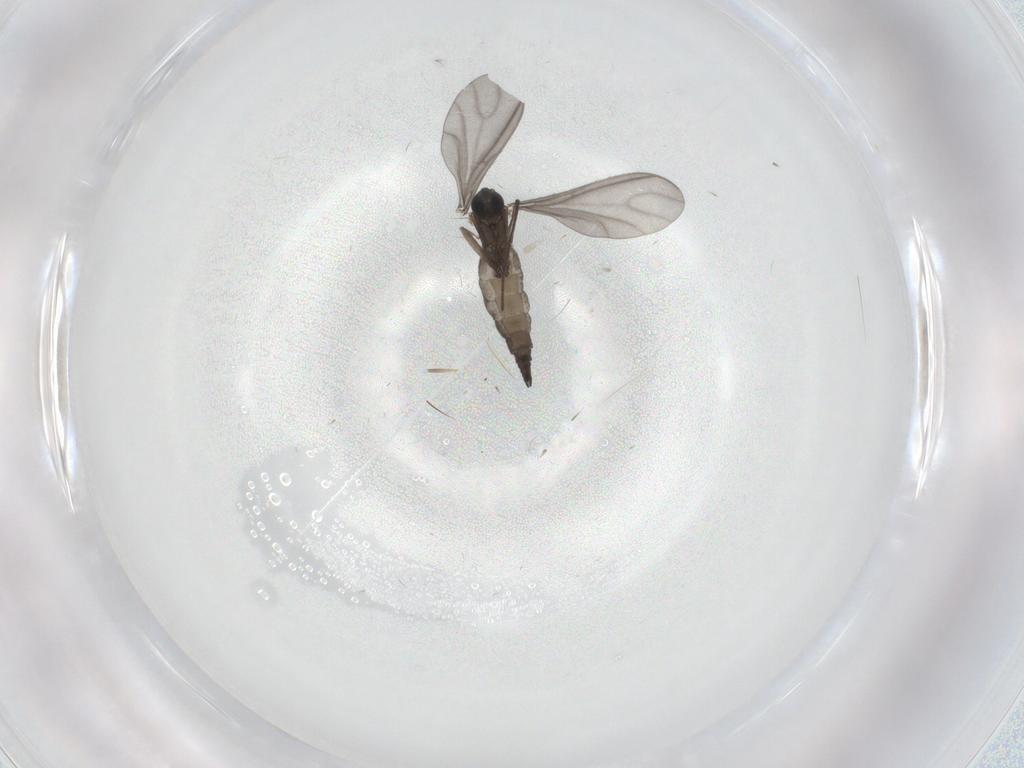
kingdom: Animalia
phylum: Arthropoda
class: Insecta
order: Diptera
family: Sciaridae
